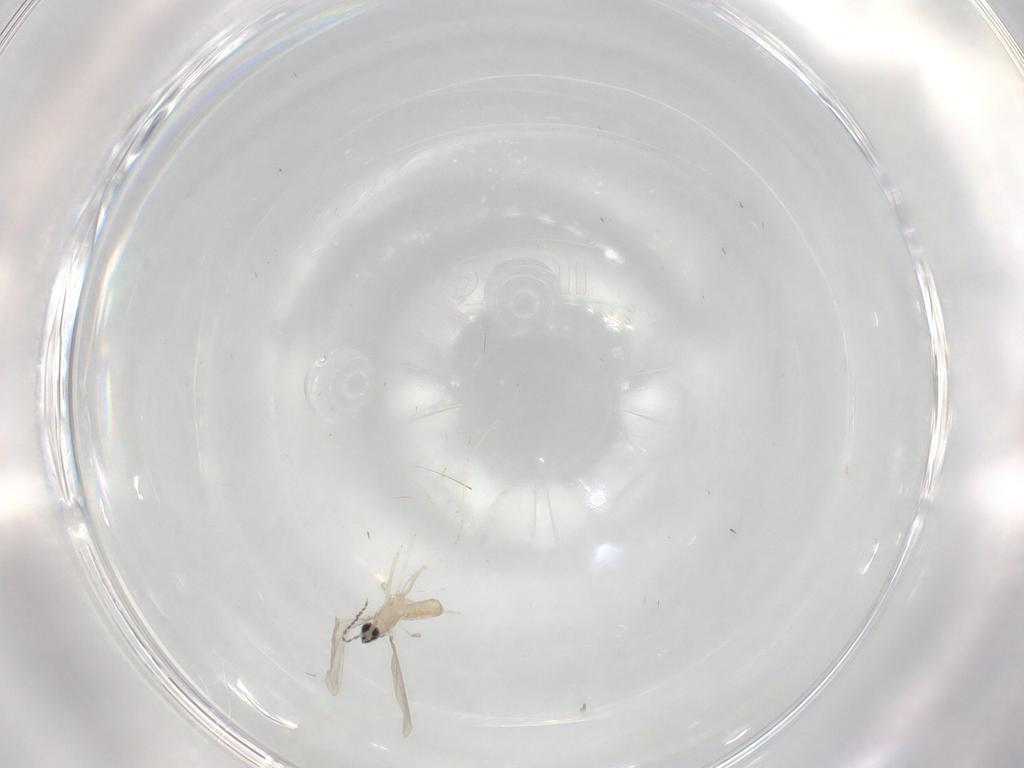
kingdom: Animalia
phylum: Arthropoda
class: Insecta
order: Diptera
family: Cecidomyiidae
